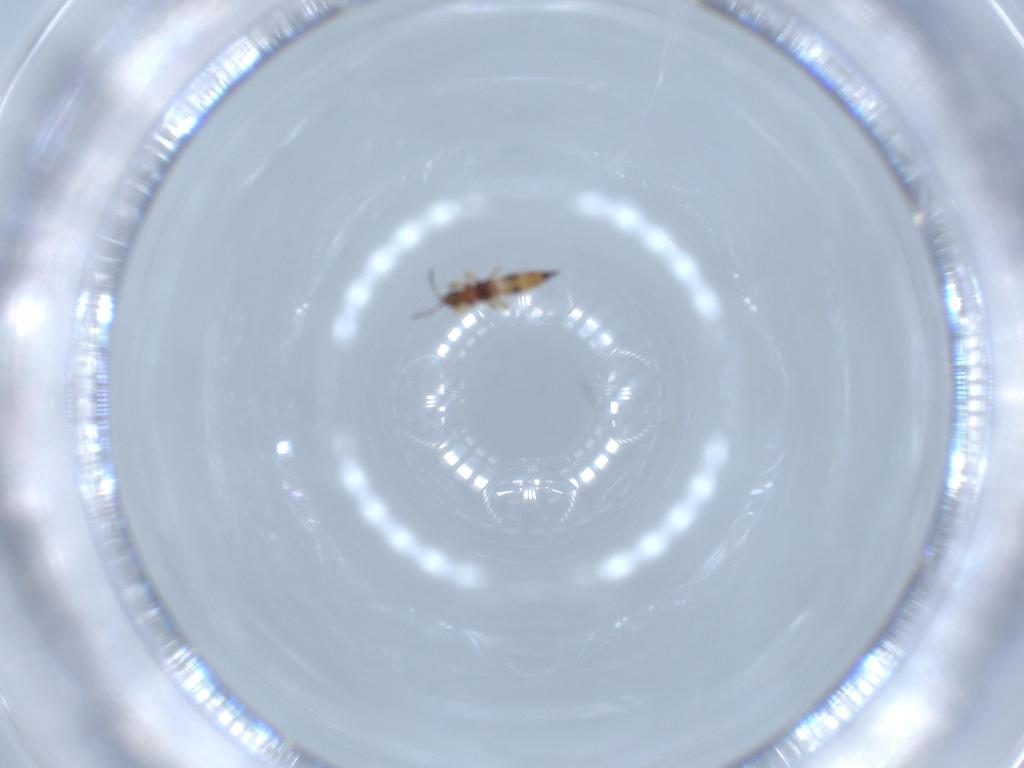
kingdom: Animalia
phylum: Arthropoda
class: Insecta
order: Thysanoptera
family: Phlaeothripidae
